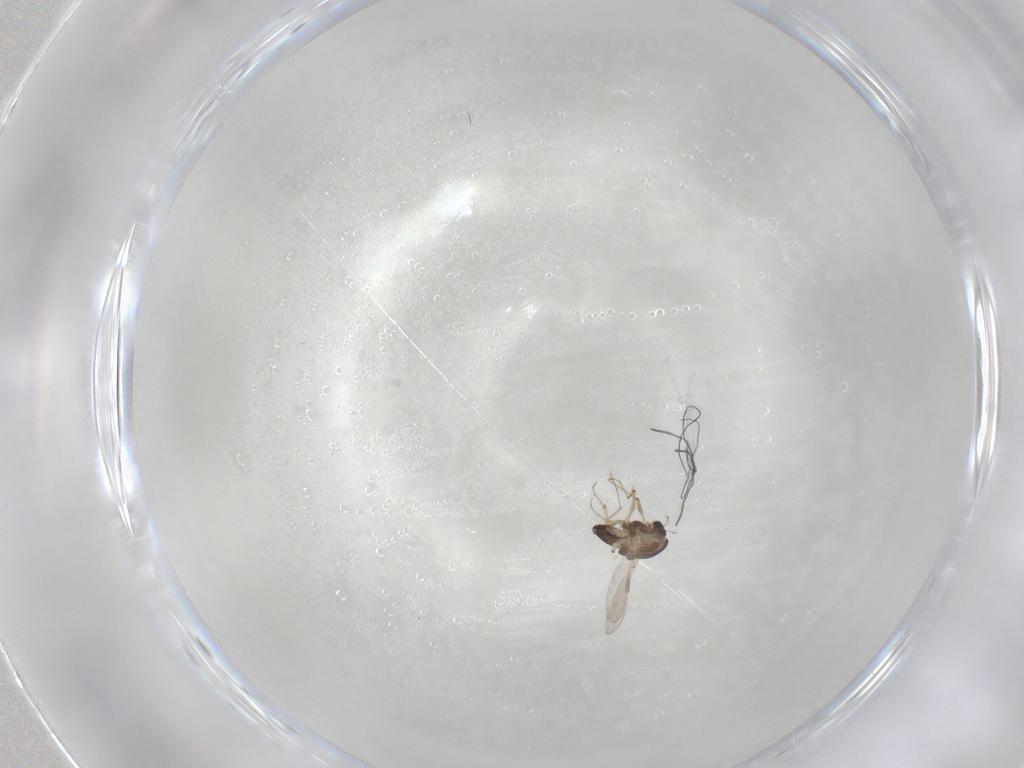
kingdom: Animalia
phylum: Arthropoda
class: Insecta
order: Diptera
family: Chironomidae
